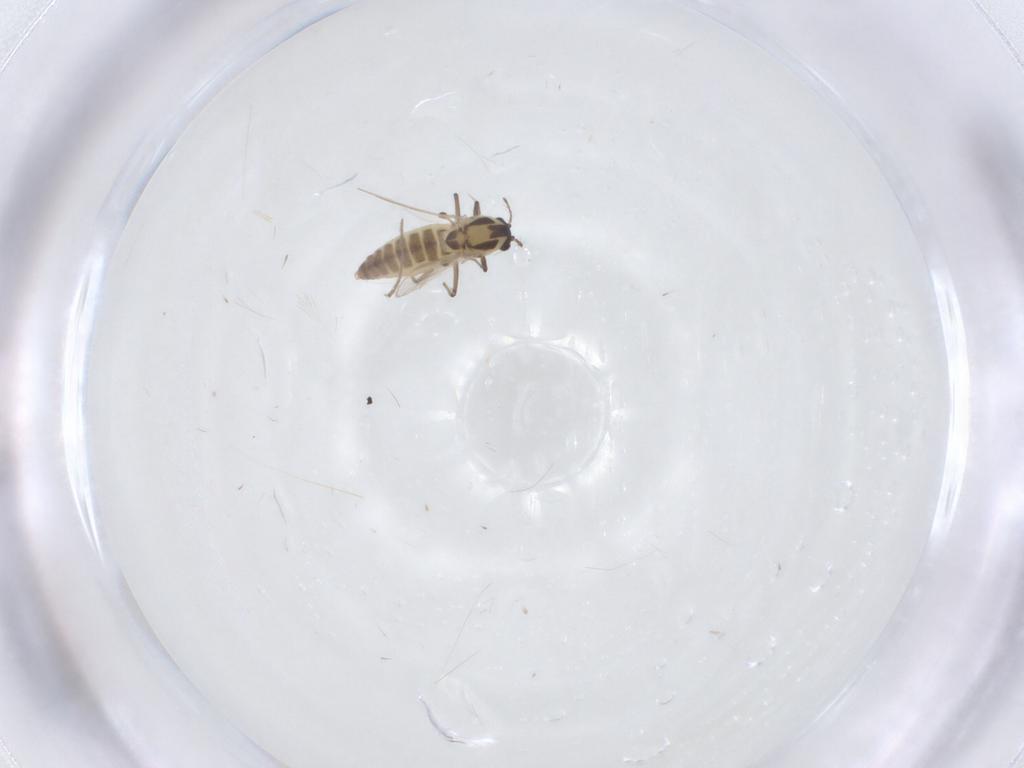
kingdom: Animalia
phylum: Arthropoda
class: Insecta
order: Diptera
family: Chironomidae
